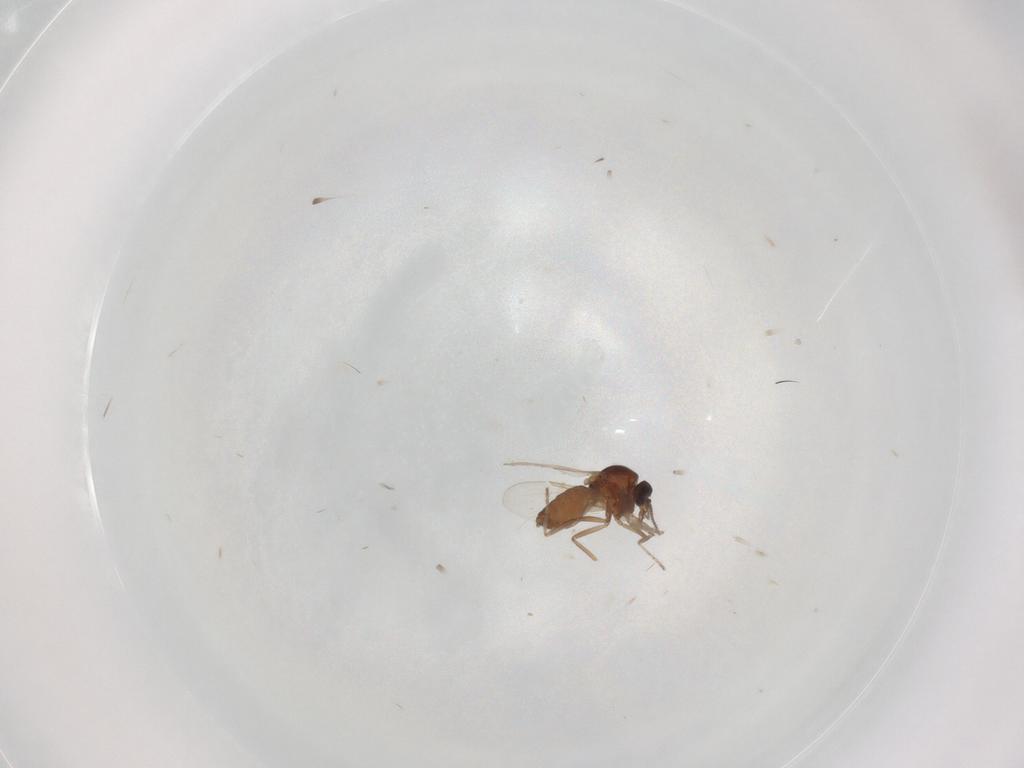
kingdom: Animalia
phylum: Arthropoda
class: Insecta
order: Diptera
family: Ceratopogonidae
